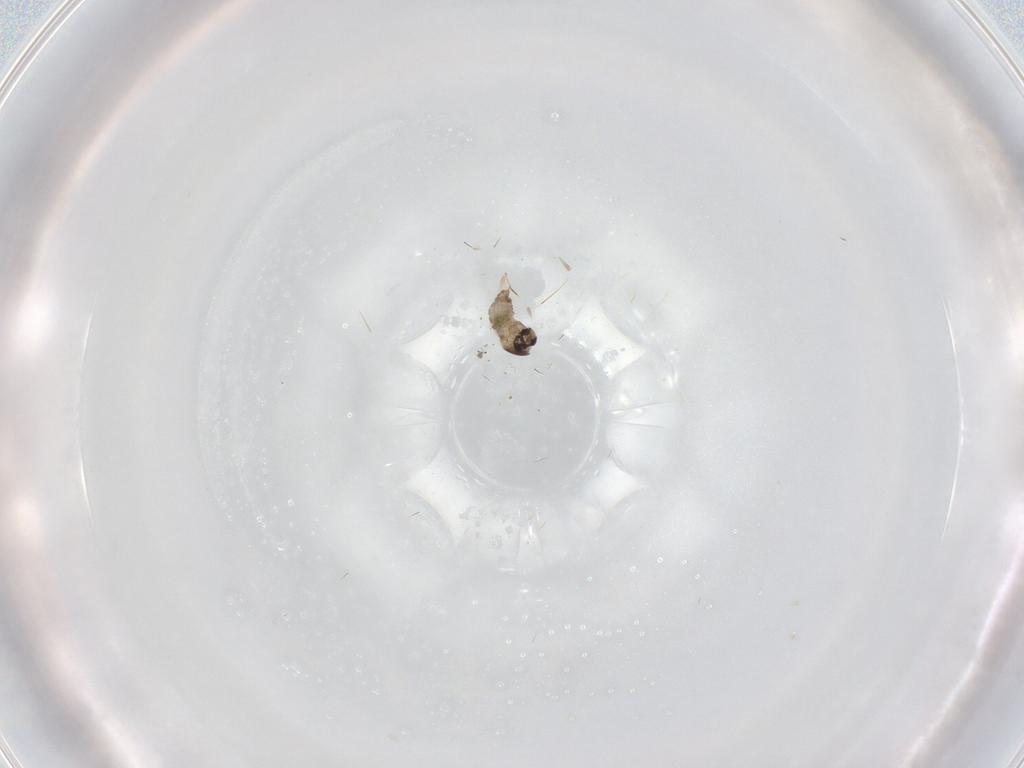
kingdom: Animalia
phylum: Arthropoda
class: Insecta
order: Diptera
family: Cecidomyiidae
